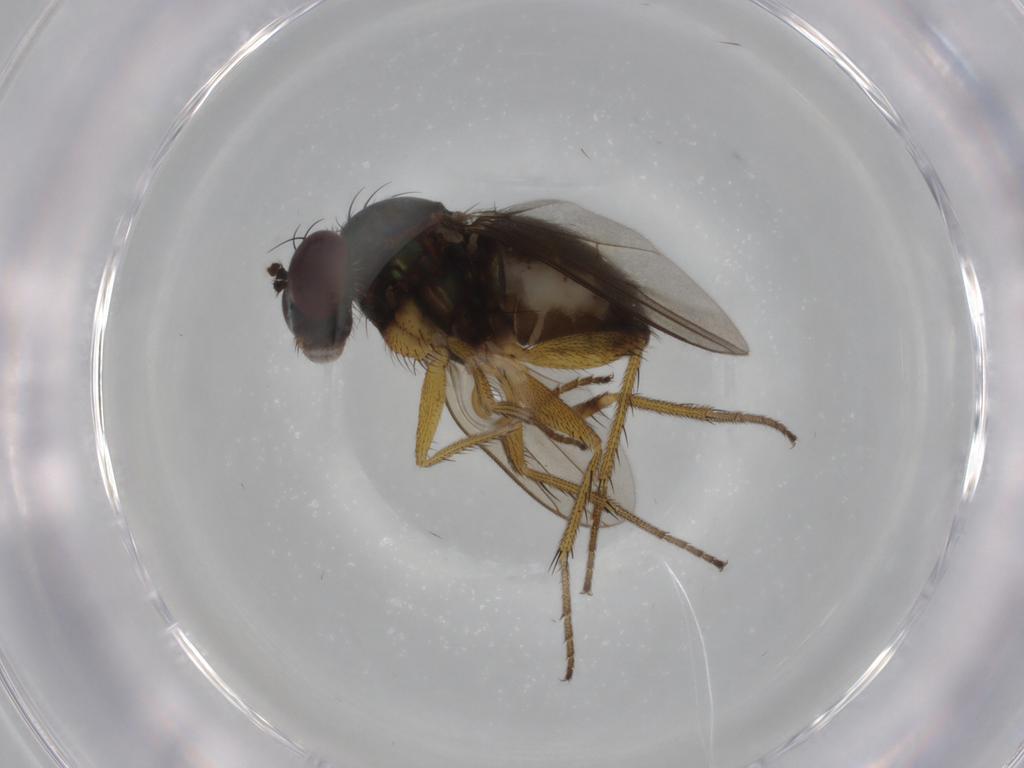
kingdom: Animalia
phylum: Arthropoda
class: Insecta
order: Diptera
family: Dolichopodidae
